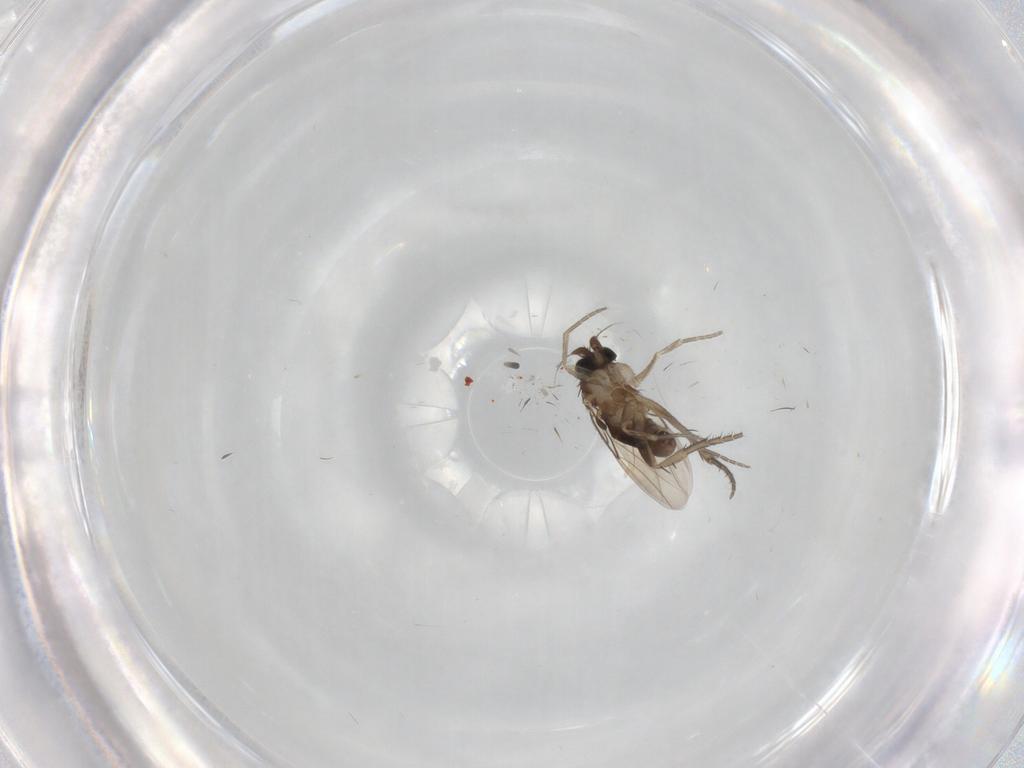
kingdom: Animalia
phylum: Arthropoda
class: Insecta
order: Diptera
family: Phoridae
